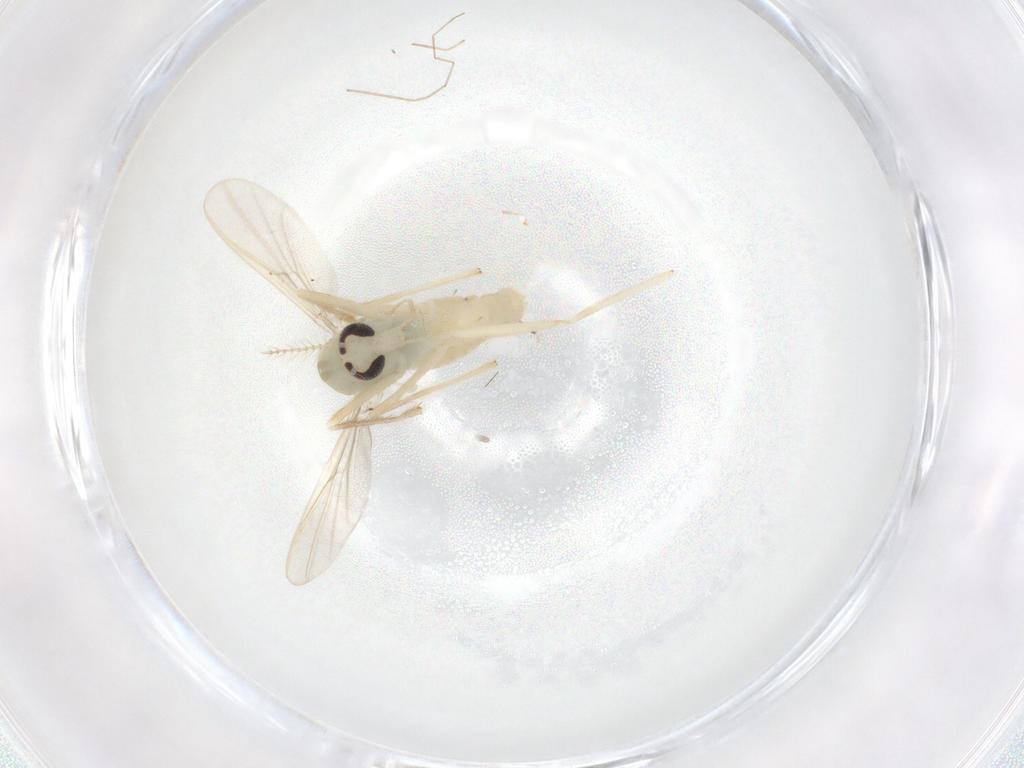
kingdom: Animalia
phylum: Arthropoda
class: Insecta
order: Diptera
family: Chironomidae
